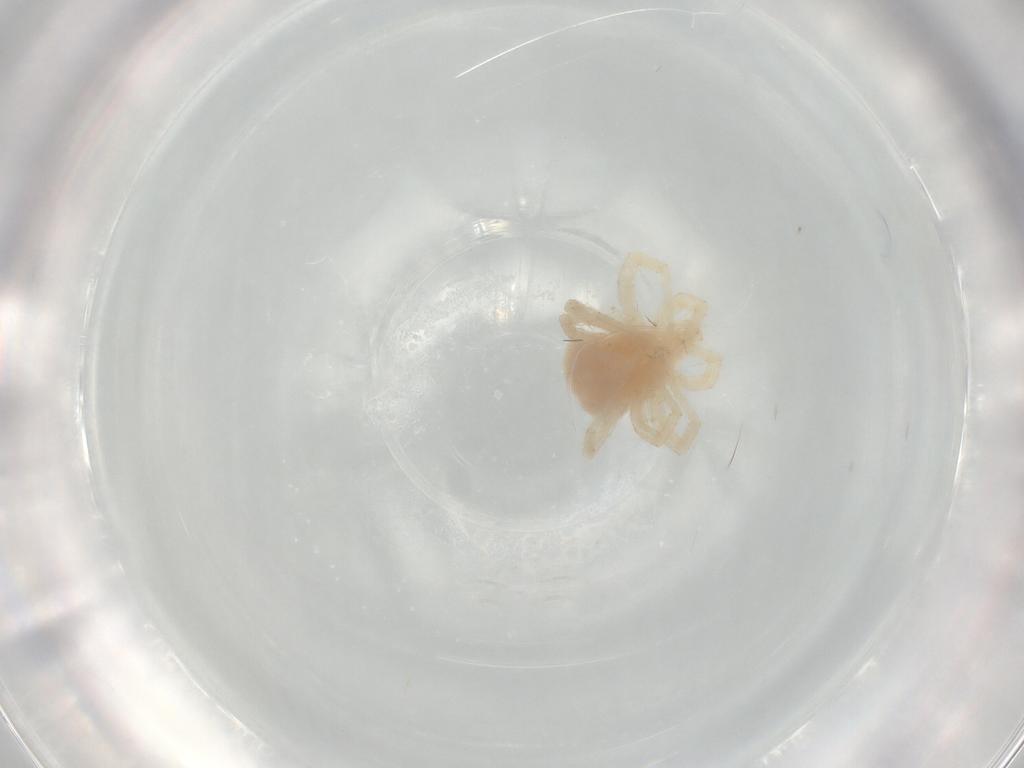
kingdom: Animalia
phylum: Arthropoda
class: Arachnida
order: Trombidiformes
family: Anystidae
